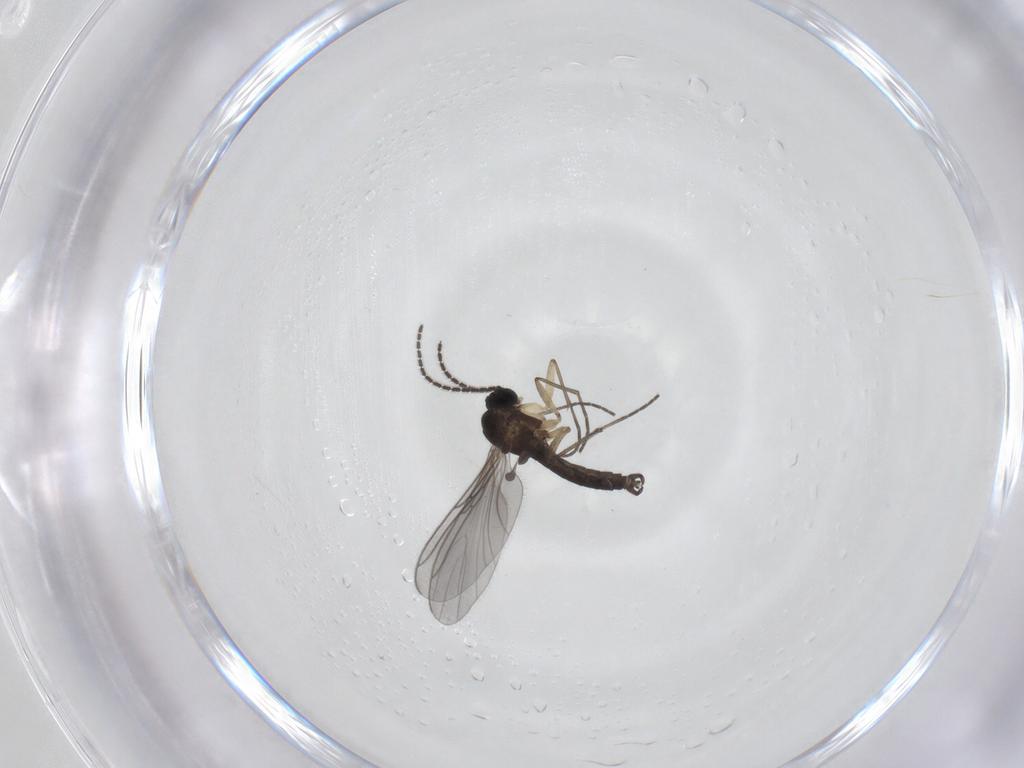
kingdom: Animalia
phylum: Arthropoda
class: Insecta
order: Diptera
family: Sciaridae
